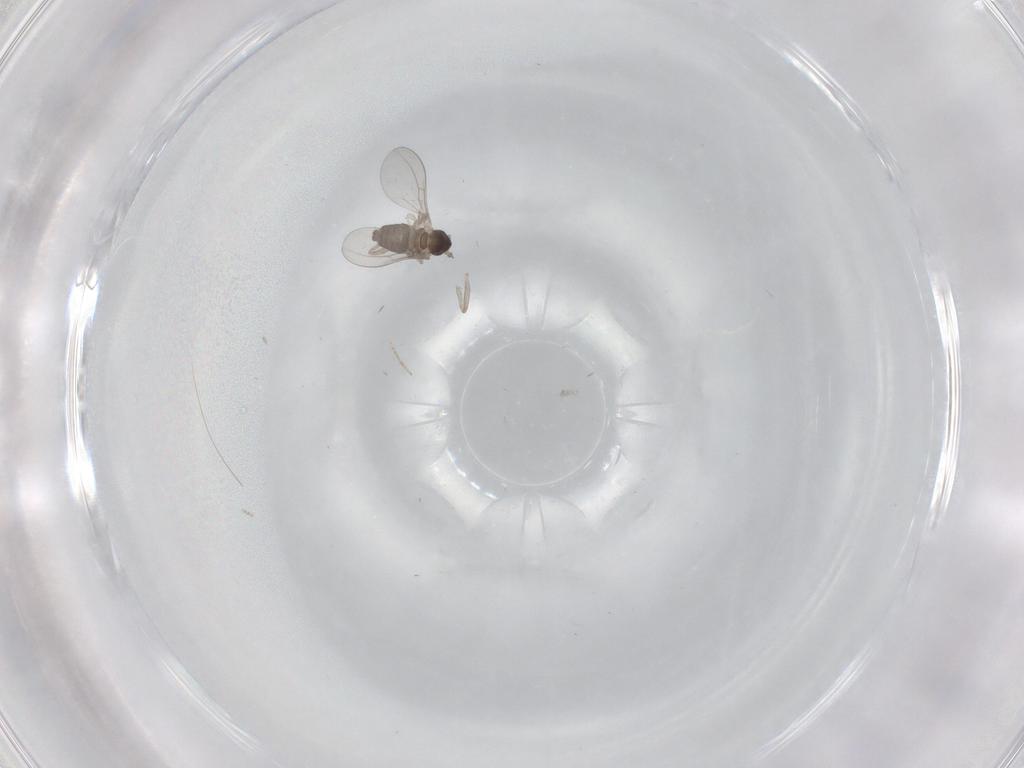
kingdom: Animalia
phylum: Arthropoda
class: Insecta
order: Diptera
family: Cecidomyiidae
